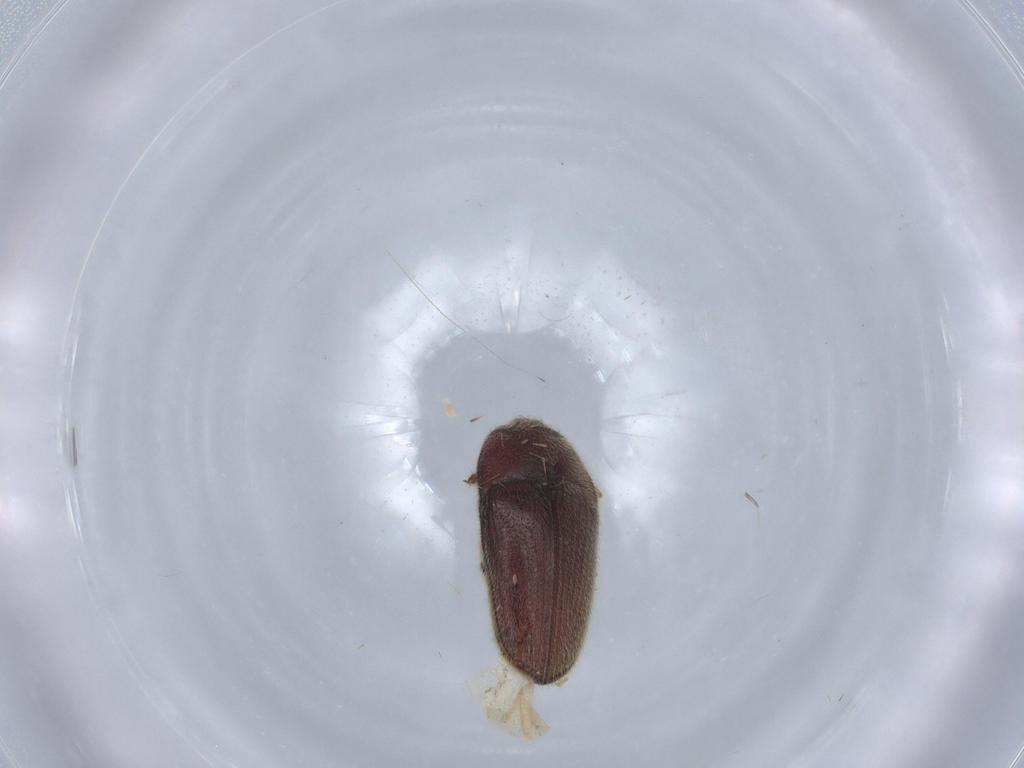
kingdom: Animalia
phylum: Arthropoda
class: Insecta
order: Coleoptera
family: Throscidae
